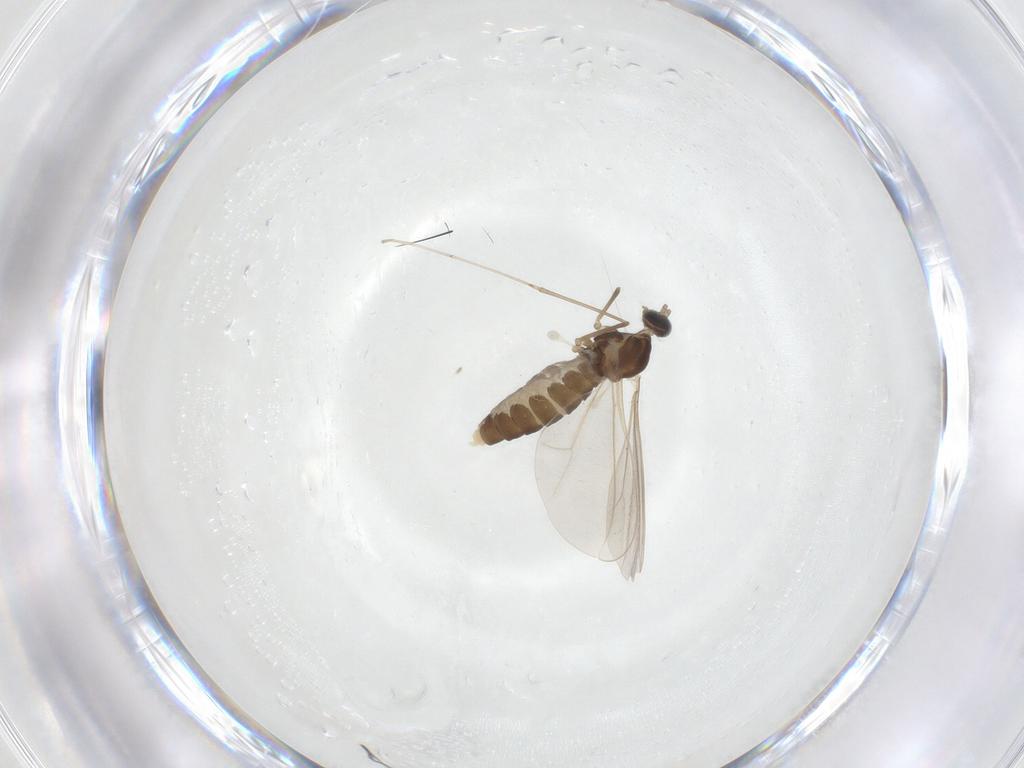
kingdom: Animalia
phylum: Arthropoda
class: Insecta
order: Diptera
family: Cecidomyiidae
